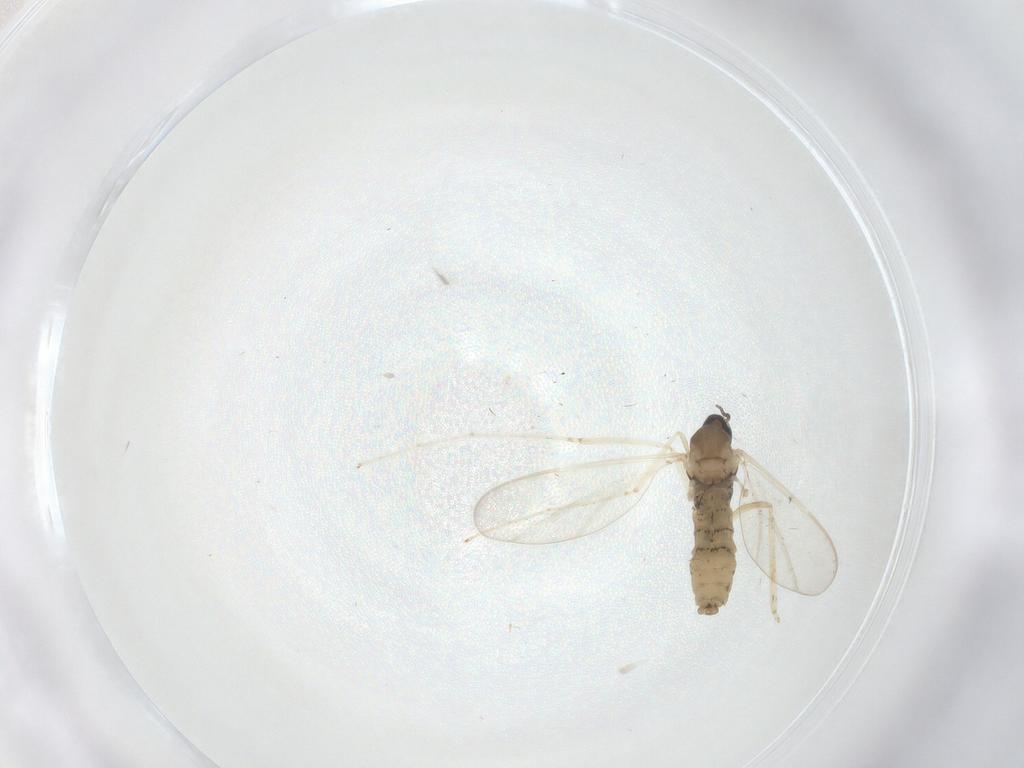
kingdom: Animalia
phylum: Arthropoda
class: Insecta
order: Diptera
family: Cecidomyiidae
